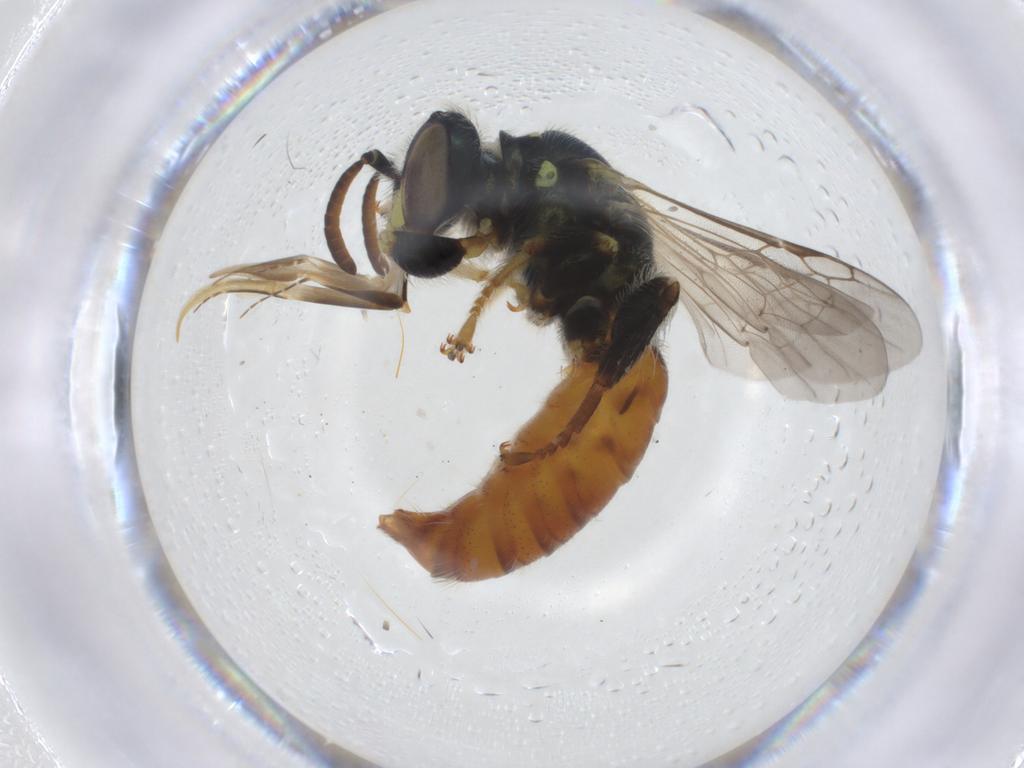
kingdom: Animalia
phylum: Arthropoda
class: Insecta
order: Hymenoptera
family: Andrenidae
